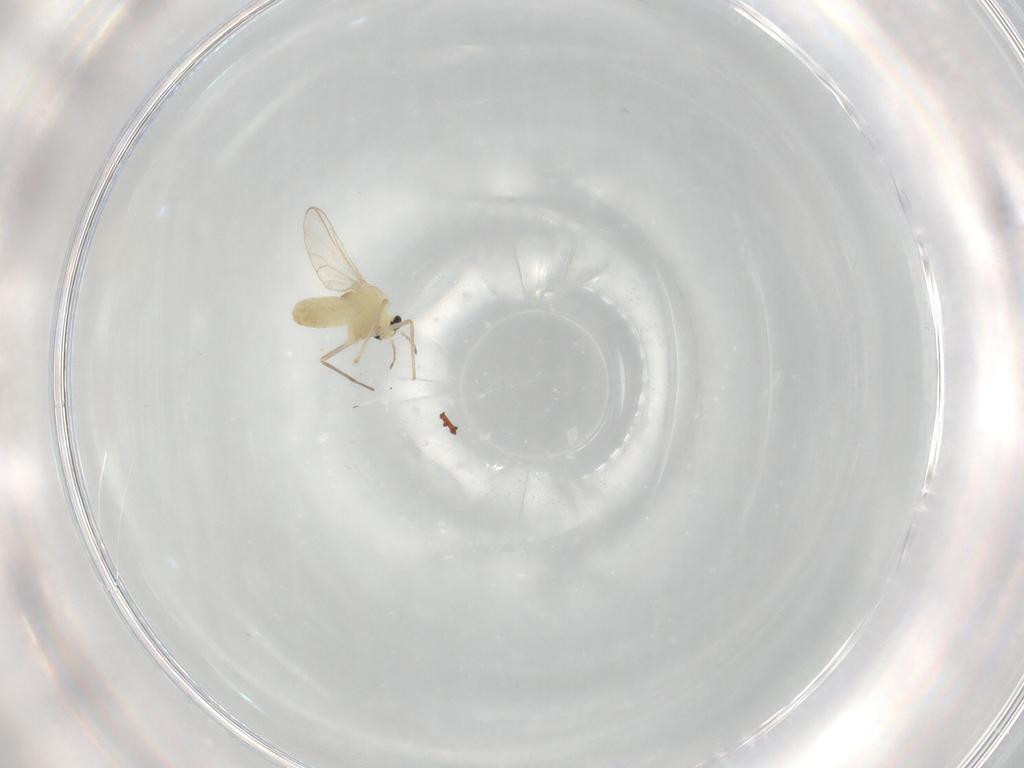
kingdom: Animalia
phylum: Arthropoda
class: Insecta
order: Diptera
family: Chironomidae
